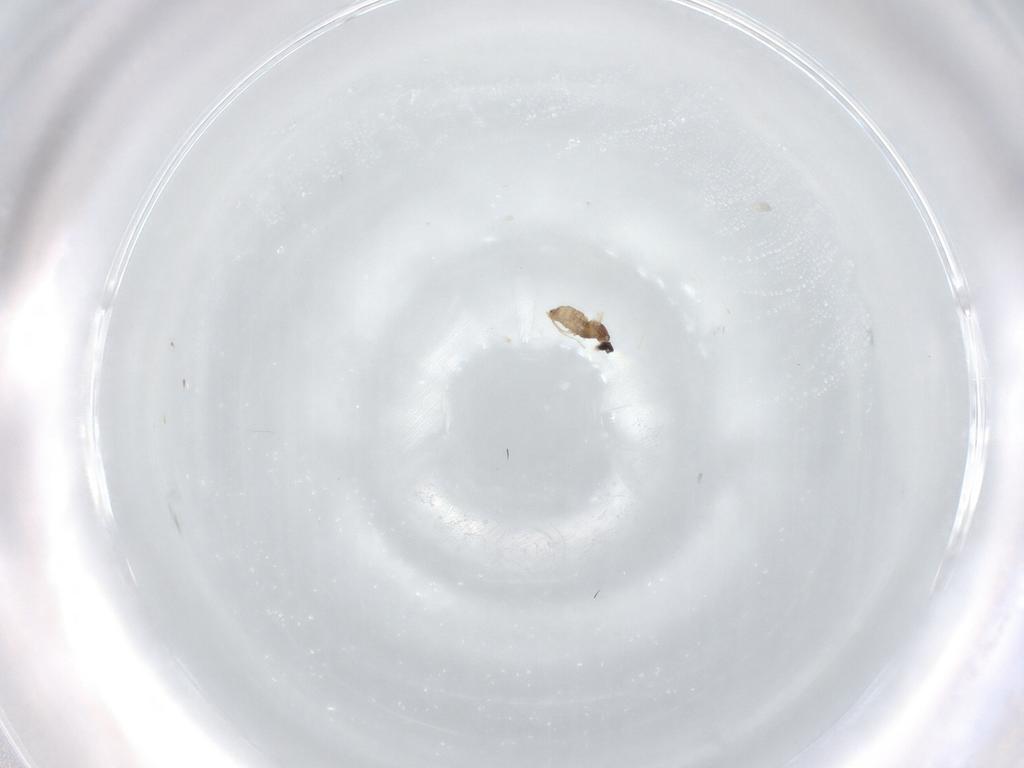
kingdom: Animalia
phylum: Arthropoda
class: Insecta
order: Diptera
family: Cecidomyiidae
